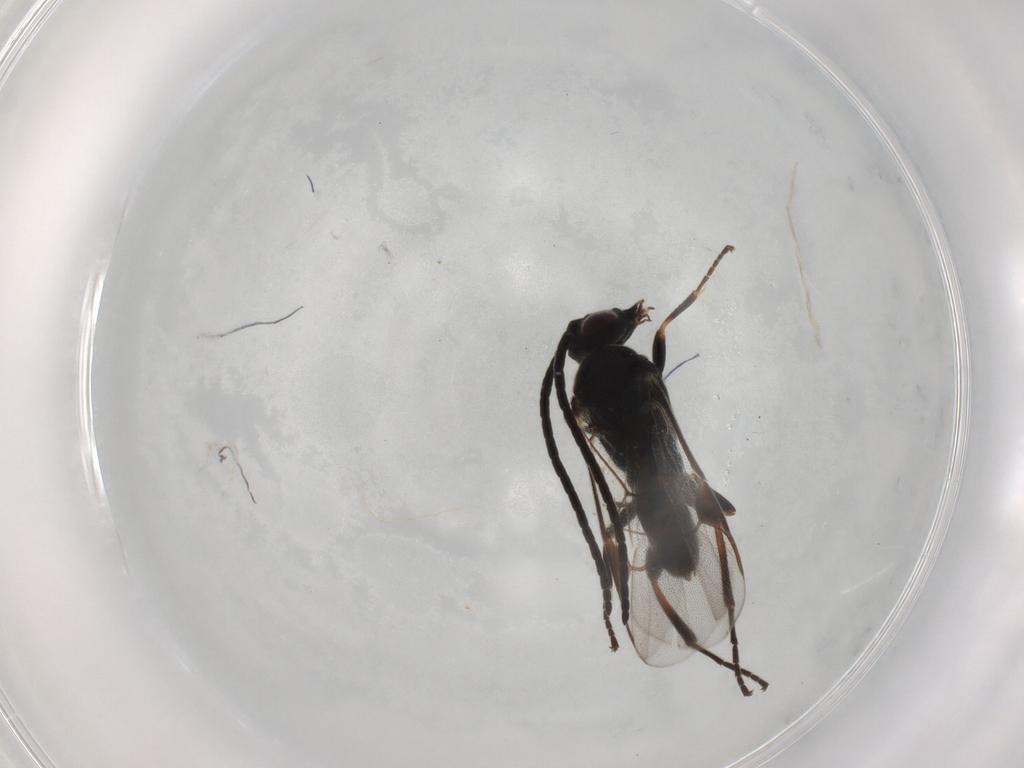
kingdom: Animalia
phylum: Arthropoda
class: Insecta
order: Hymenoptera
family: Braconidae
